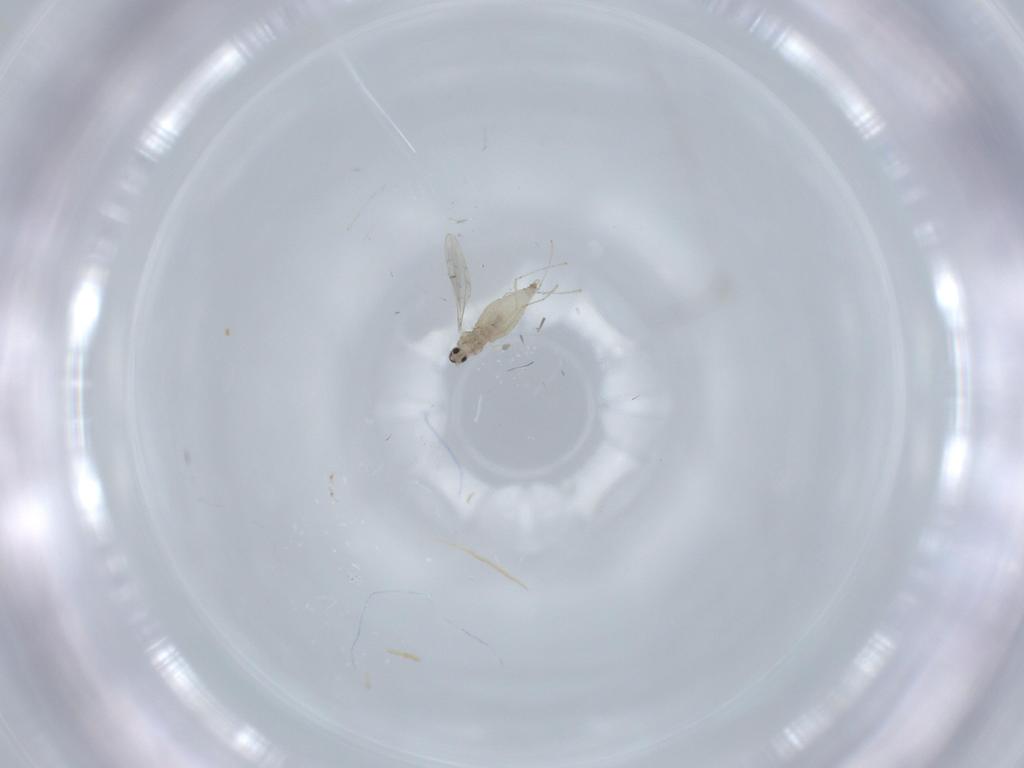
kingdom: Animalia
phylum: Arthropoda
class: Insecta
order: Diptera
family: Cecidomyiidae
